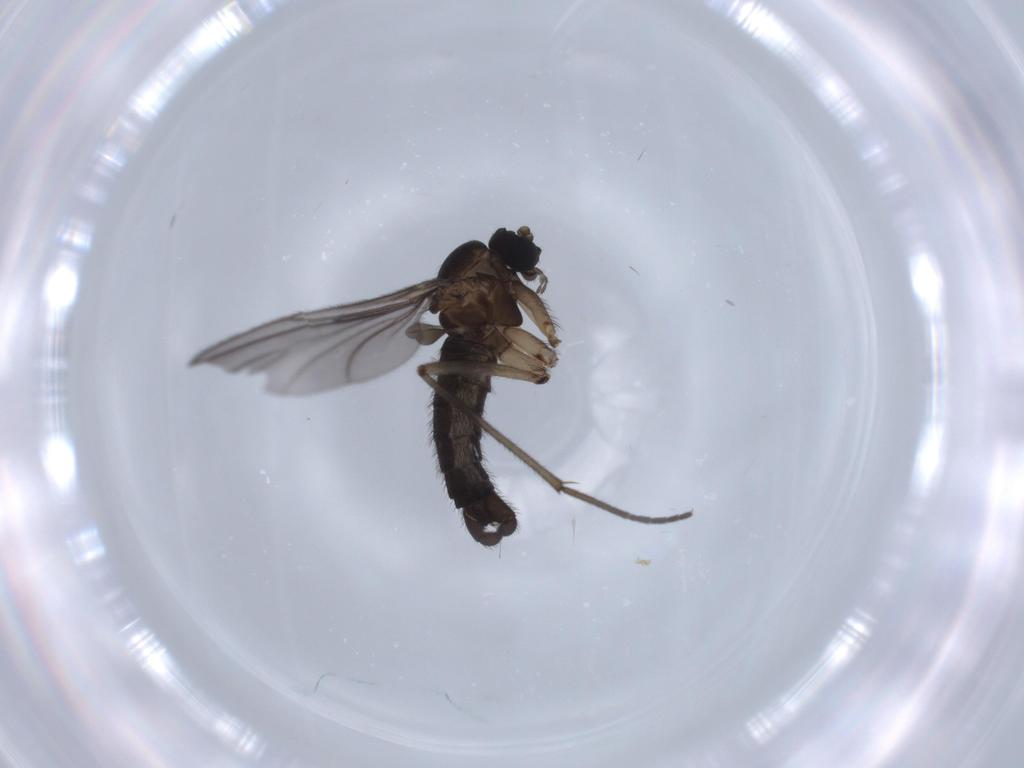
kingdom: Animalia
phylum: Arthropoda
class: Insecta
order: Diptera
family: Sciaridae
